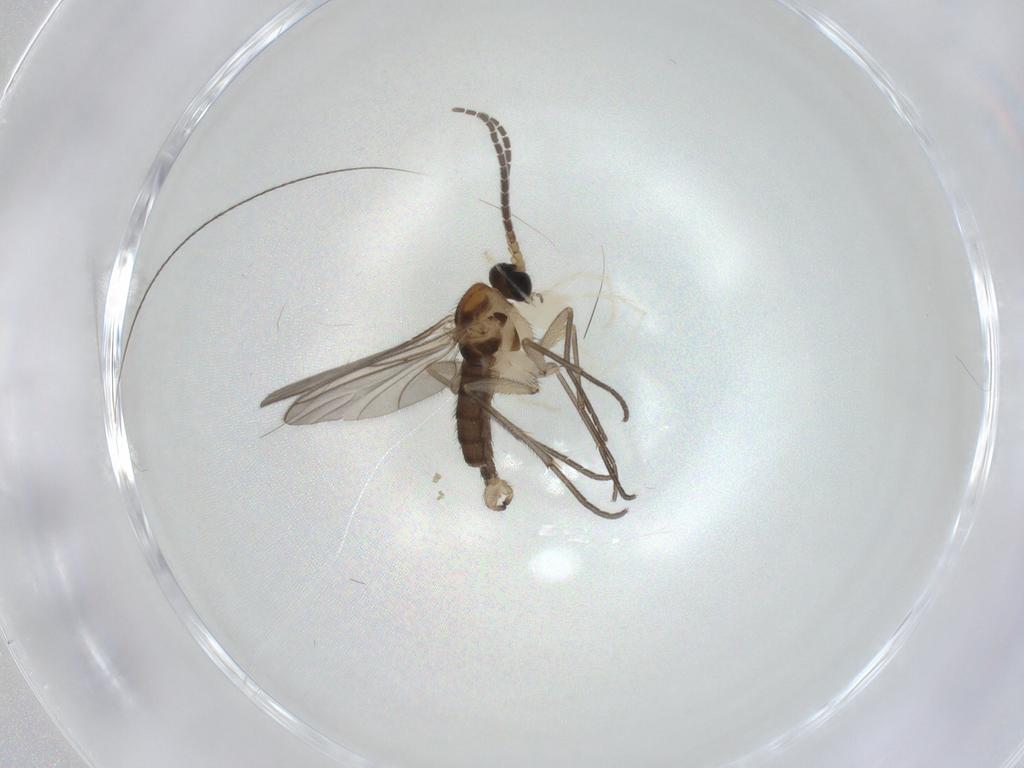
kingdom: Animalia
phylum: Arthropoda
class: Insecta
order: Diptera
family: Sciaridae
